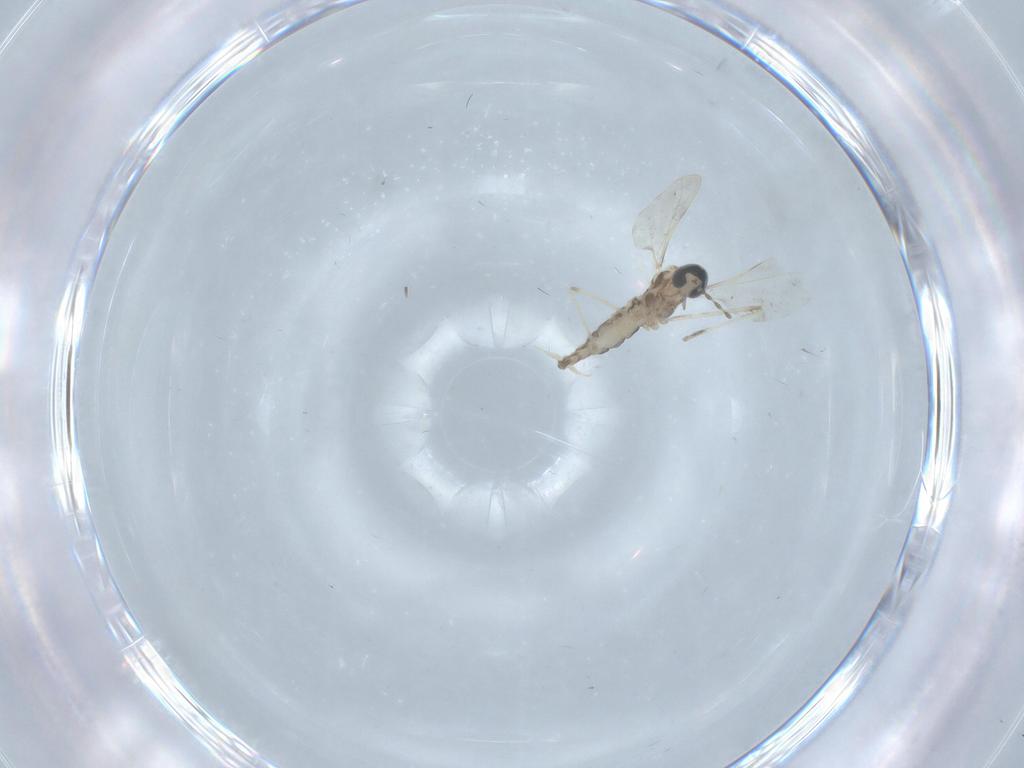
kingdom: Animalia
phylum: Arthropoda
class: Insecta
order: Diptera
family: Cecidomyiidae
